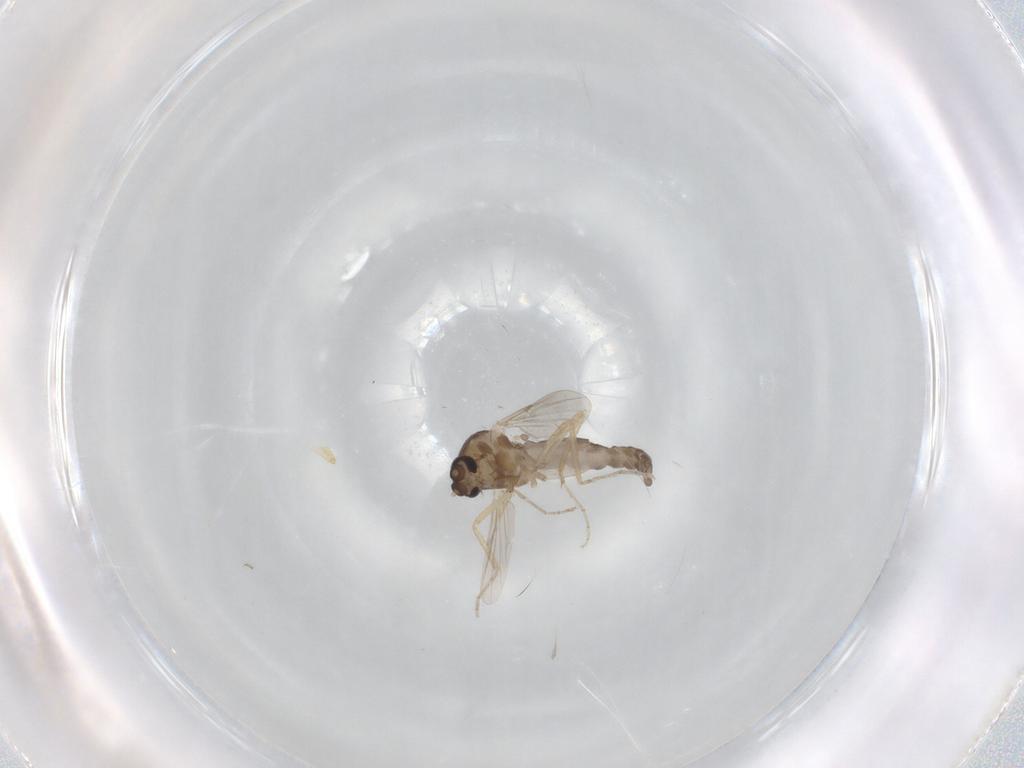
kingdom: Animalia
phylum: Arthropoda
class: Insecta
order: Diptera
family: Ceratopogonidae
